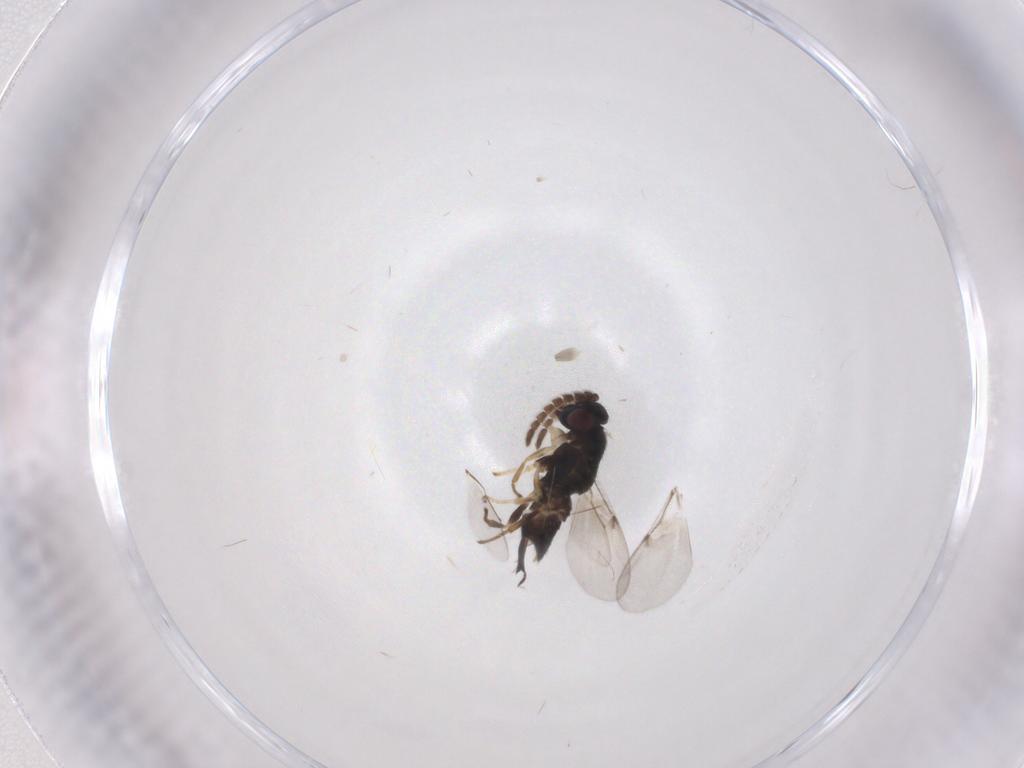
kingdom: Animalia
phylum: Arthropoda
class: Insecta
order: Hymenoptera
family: Encyrtidae
